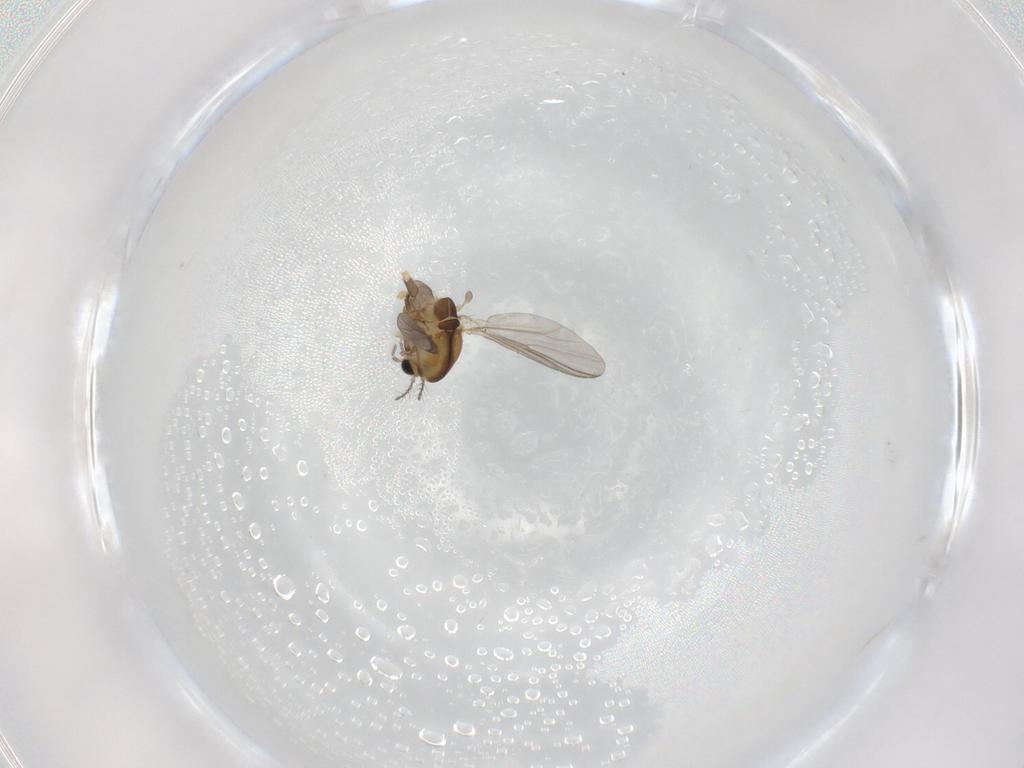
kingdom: Animalia
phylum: Arthropoda
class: Insecta
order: Diptera
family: Chironomidae
